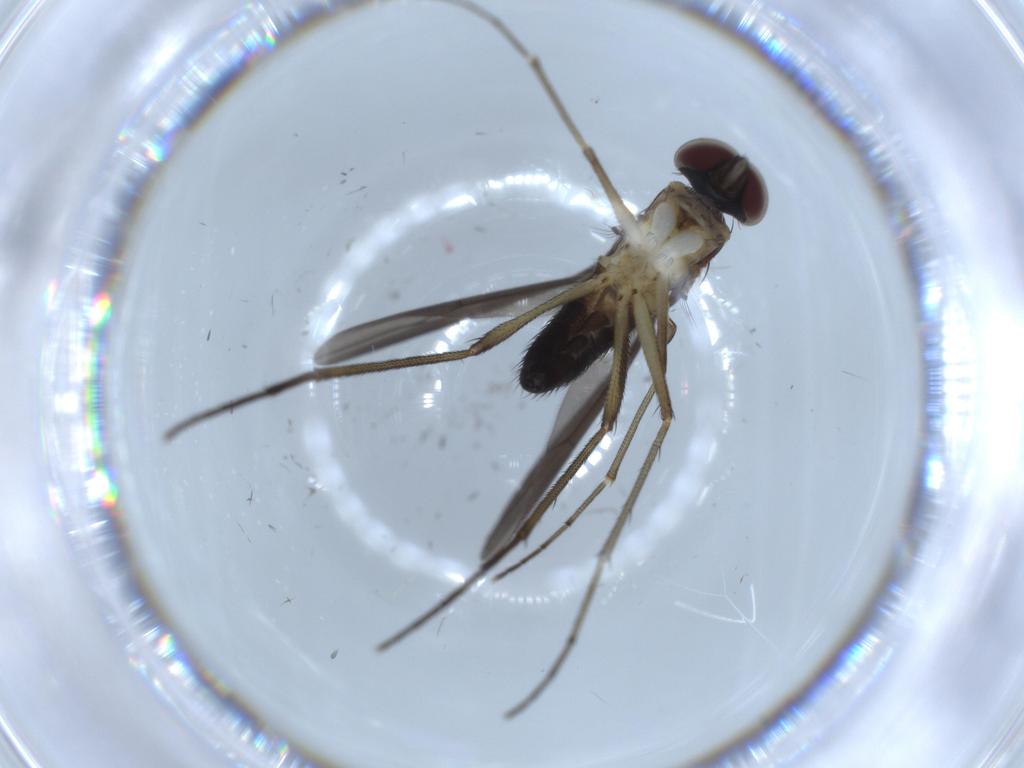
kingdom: Animalia
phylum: Arthropoda
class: Insecta
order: Diptera
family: Dolichopodidae
